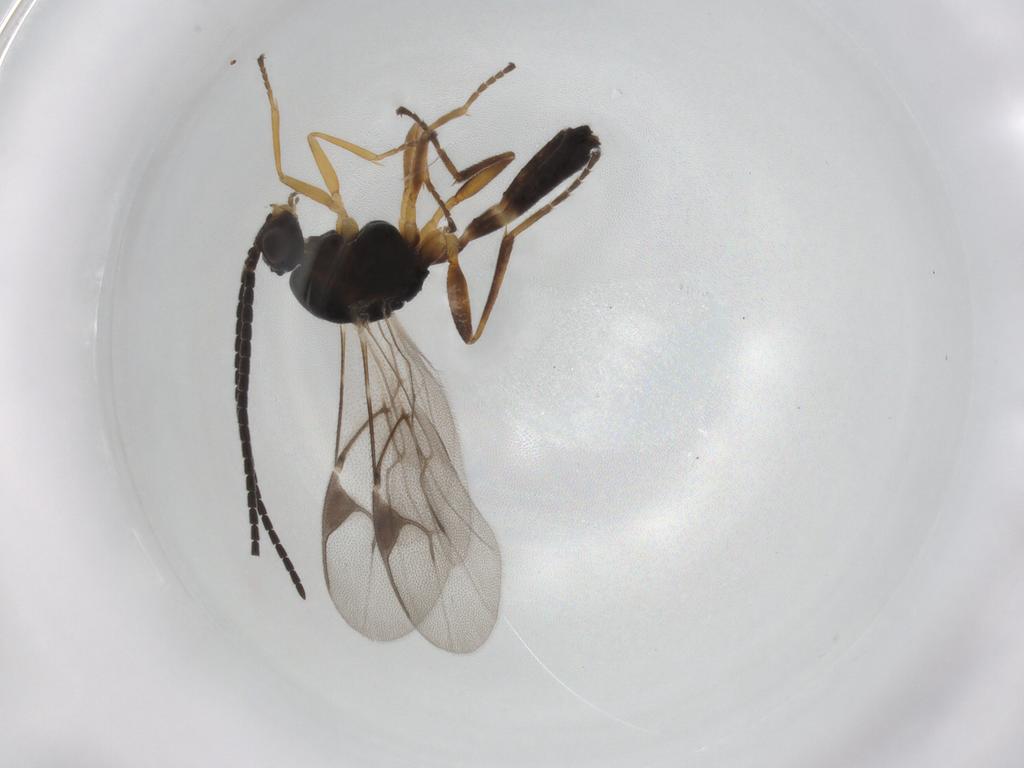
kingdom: Animalia
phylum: Arthropoda
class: Insecta
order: Hymenoptera
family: Braconidae
